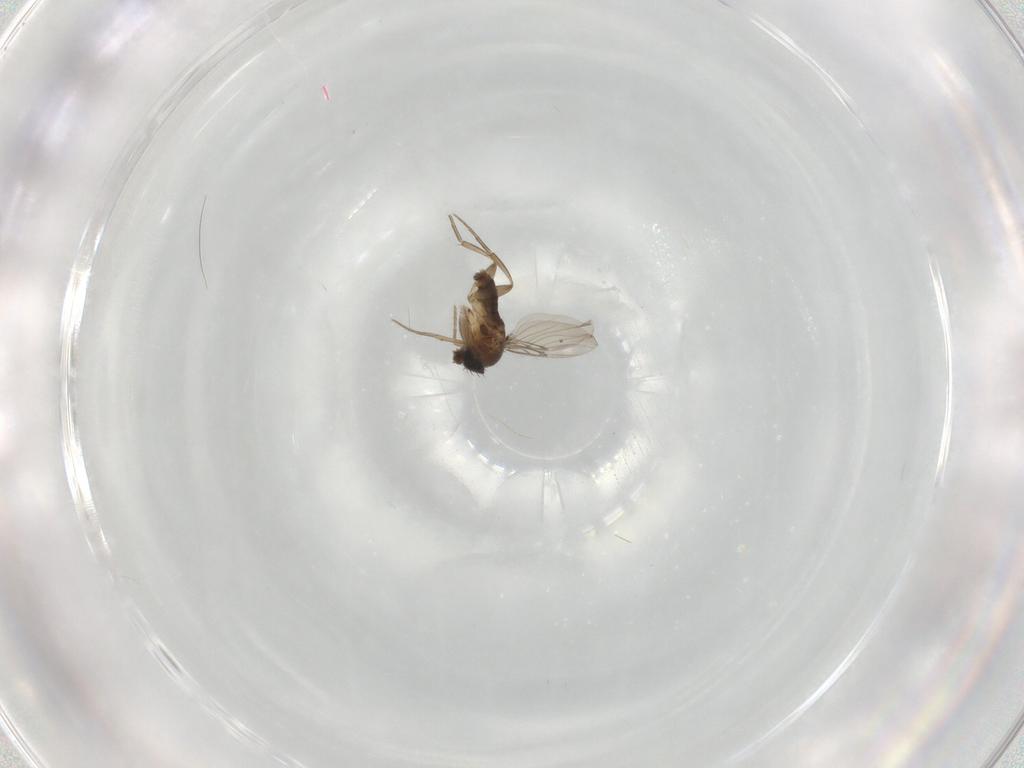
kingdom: Animalia
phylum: Arthropoda
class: Insecta
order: Diptera
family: Phoridae
